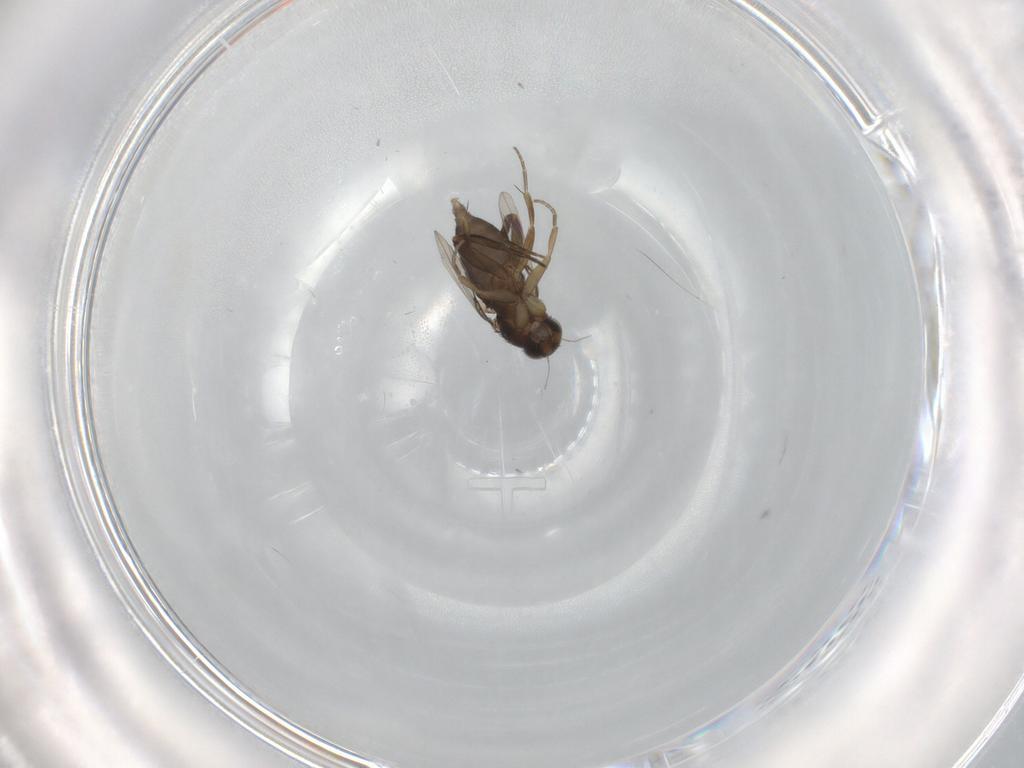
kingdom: Animalia
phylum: Arthropoda
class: Insecta
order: Diptera
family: Phoridae
